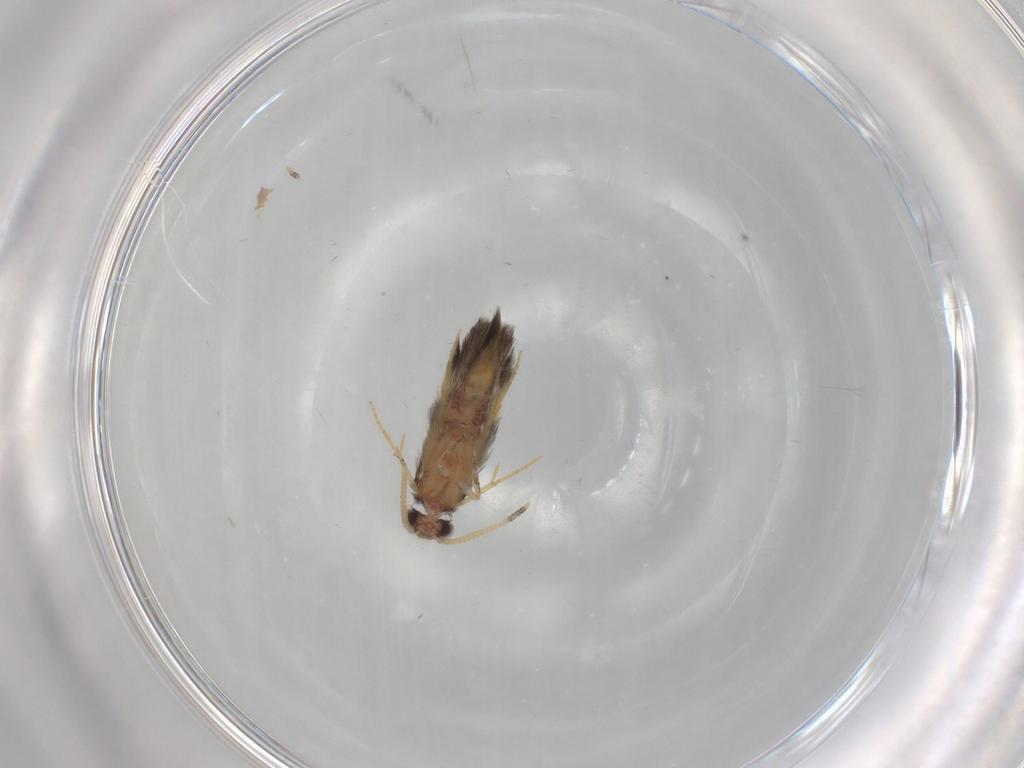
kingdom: Animalia
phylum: Arthropoda
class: Insecta
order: Trichoptera
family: Hydroptilidae
